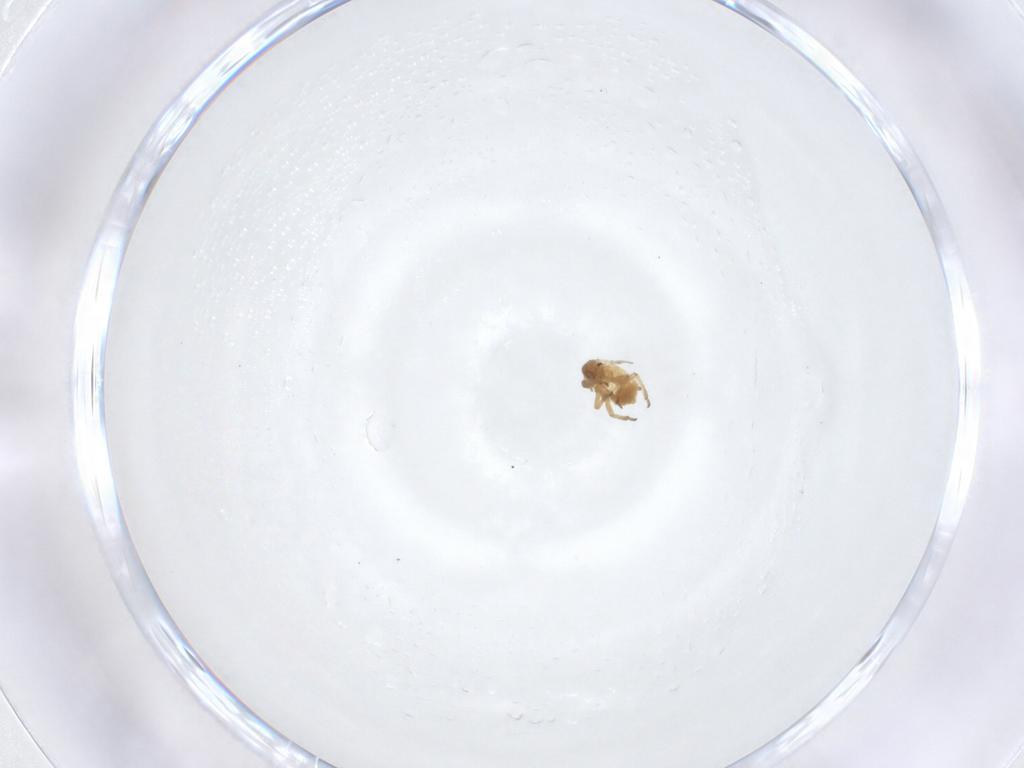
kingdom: Animalia
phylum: Arthropoda
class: Insecta
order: Hemiptera
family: Aphididae
